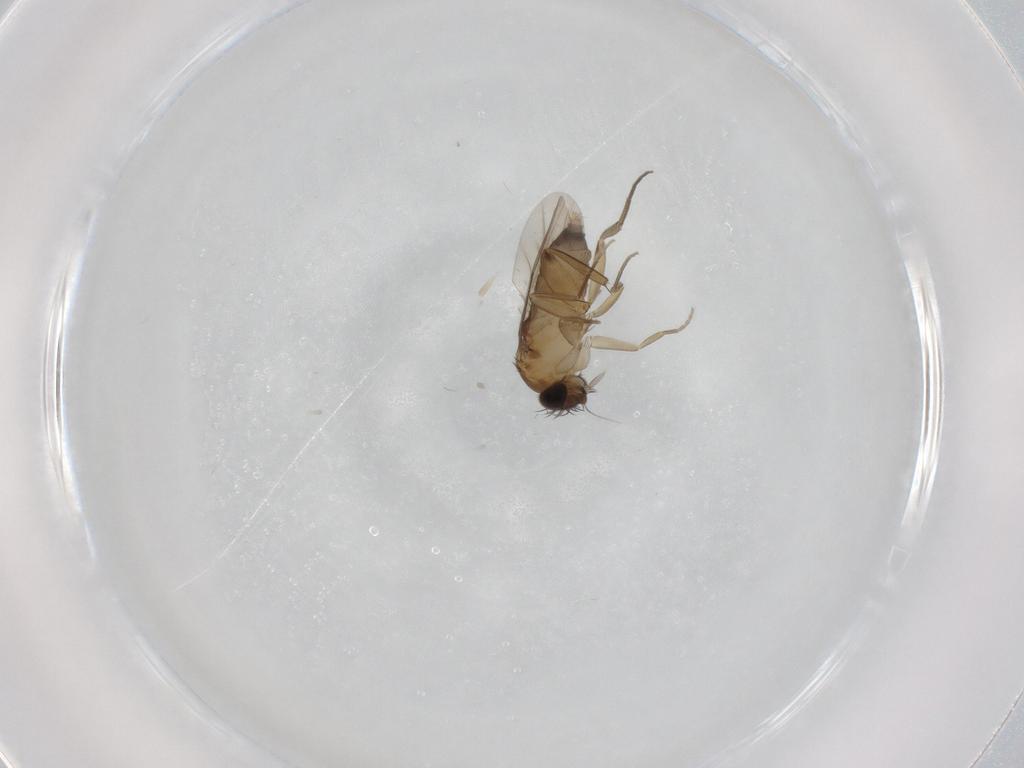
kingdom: Animalia
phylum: Arthropoda
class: Insecta
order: Diptera
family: Phoridae
